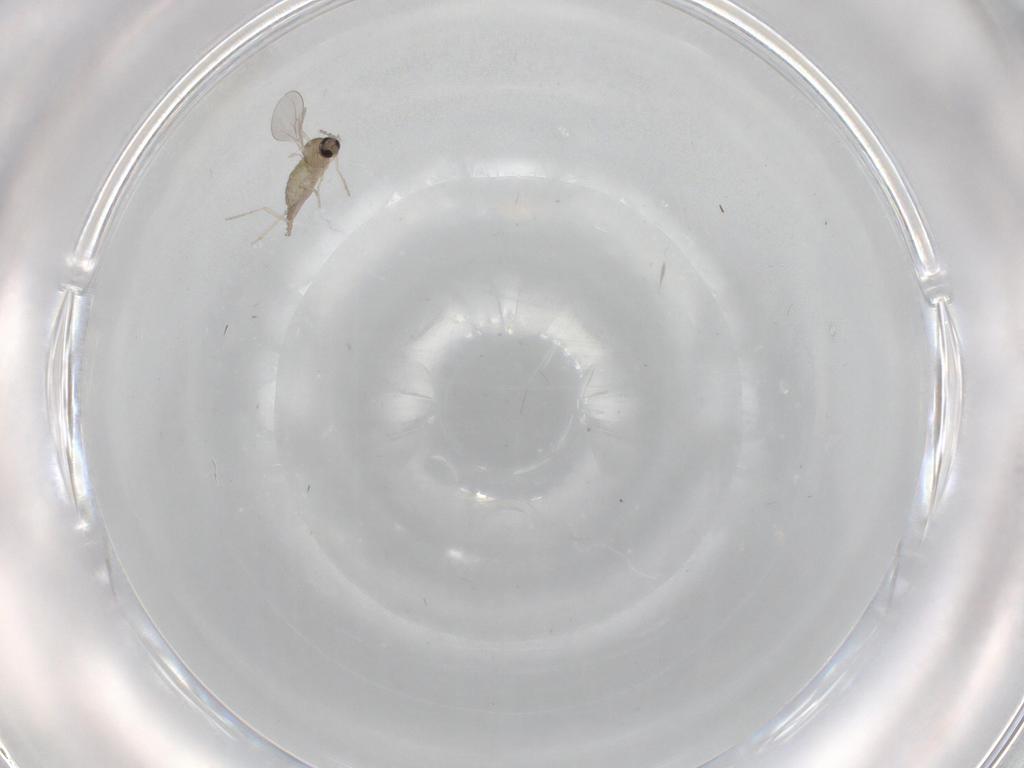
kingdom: Animalia
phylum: Arthropoda
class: Insecta
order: Diptera
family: Cecidomyiidae
